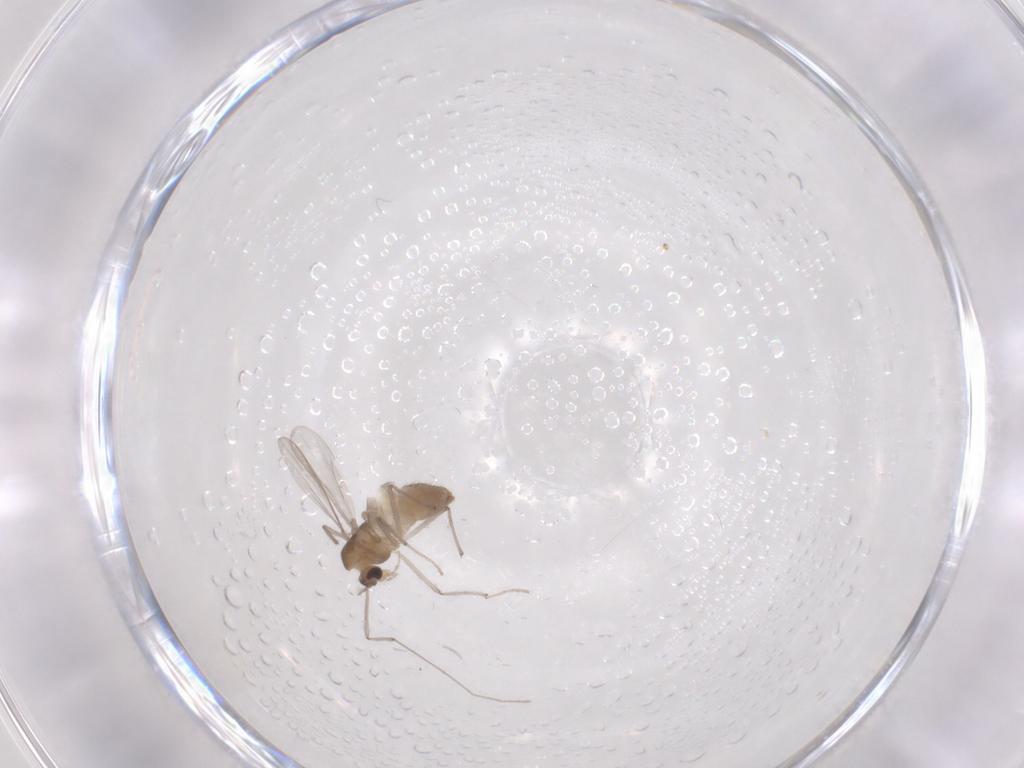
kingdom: Animalia
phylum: Arthropoda
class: Insecta
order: Diptera
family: Chironomidae
